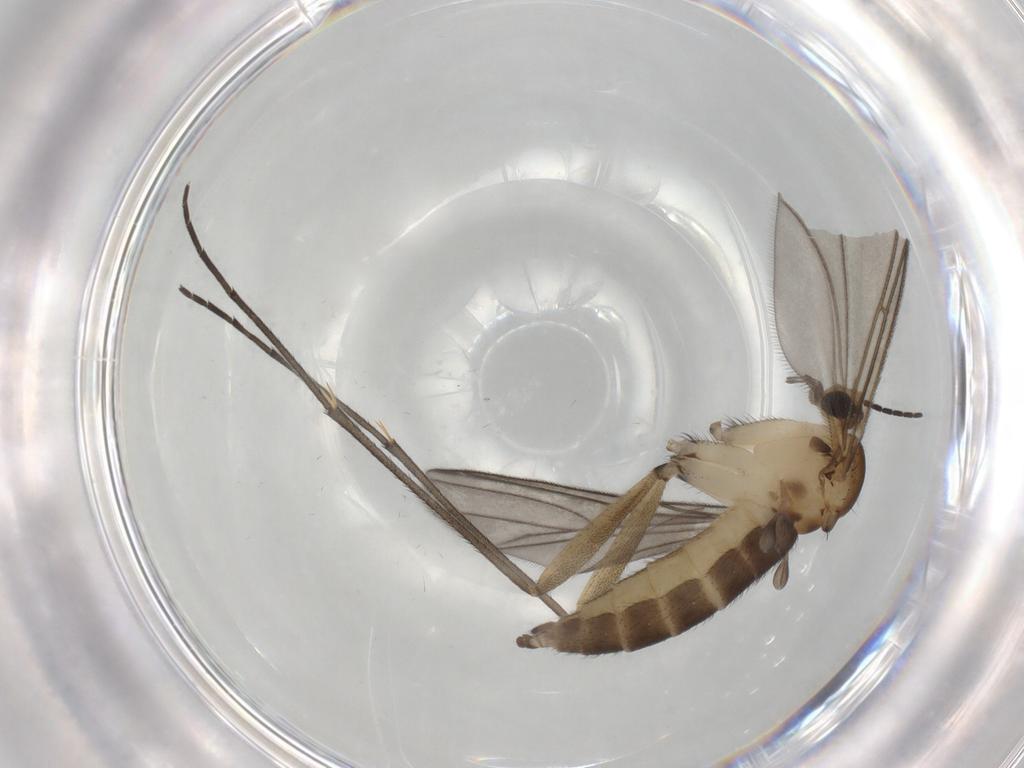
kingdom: Animalia
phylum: Arthropoda
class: Insecta
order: Diptera
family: Sciaridae
